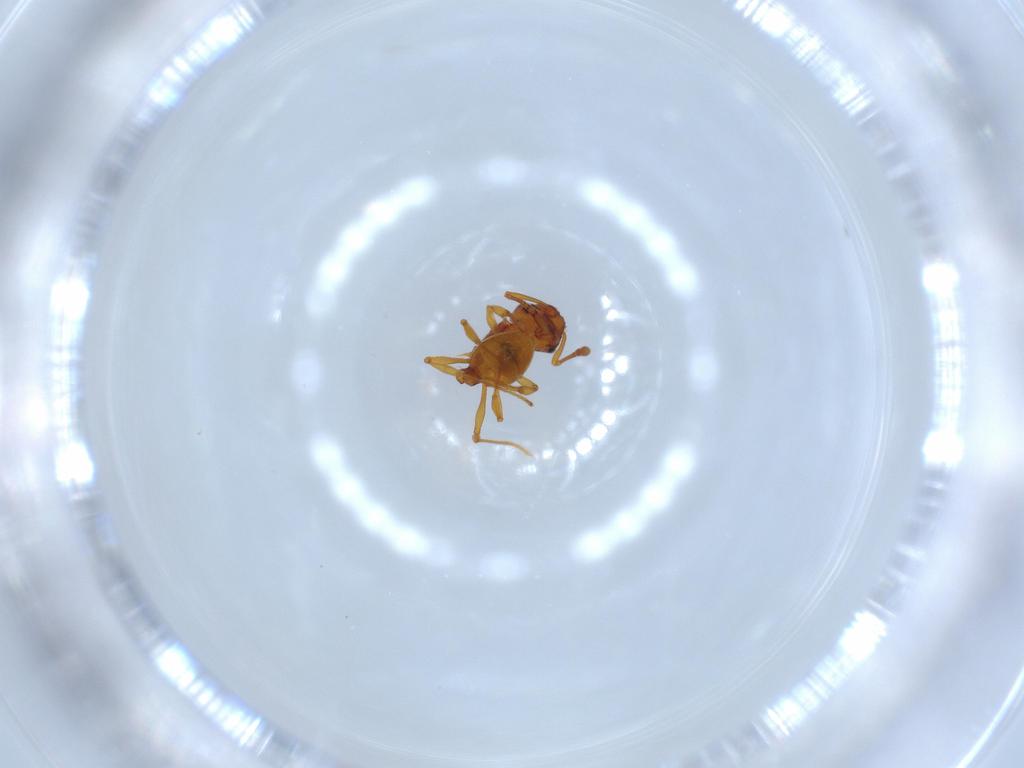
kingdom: Animalia
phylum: Arthropoda
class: Insecta
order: Hymenoptera
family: Formicidae
